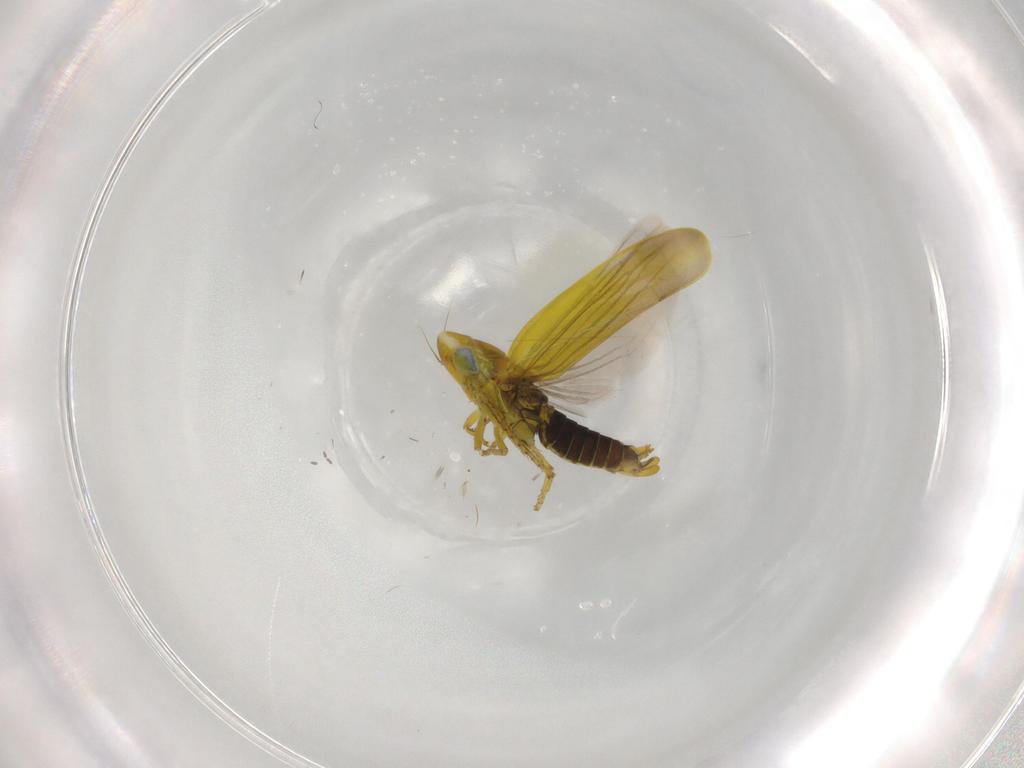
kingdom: Animalia
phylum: Arthropoda
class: Insecta
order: Hemiptera
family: Cicadellidae
